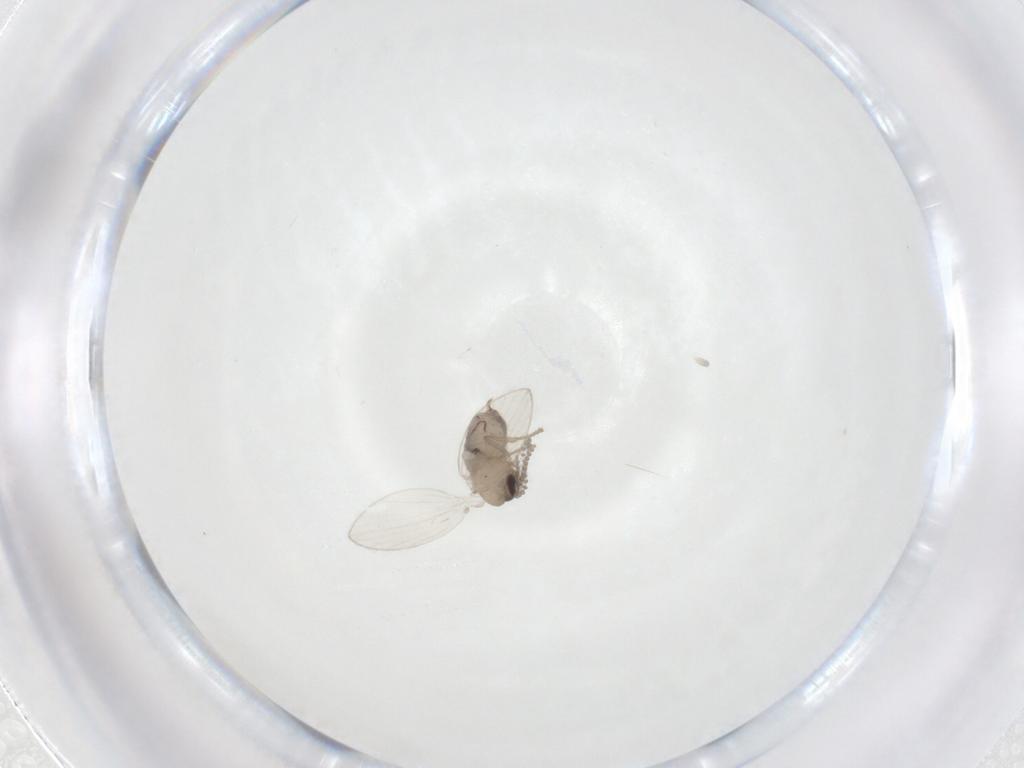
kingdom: Animalia
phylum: Arthropoda
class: Insecta
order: Diptera
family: Psychodidae
